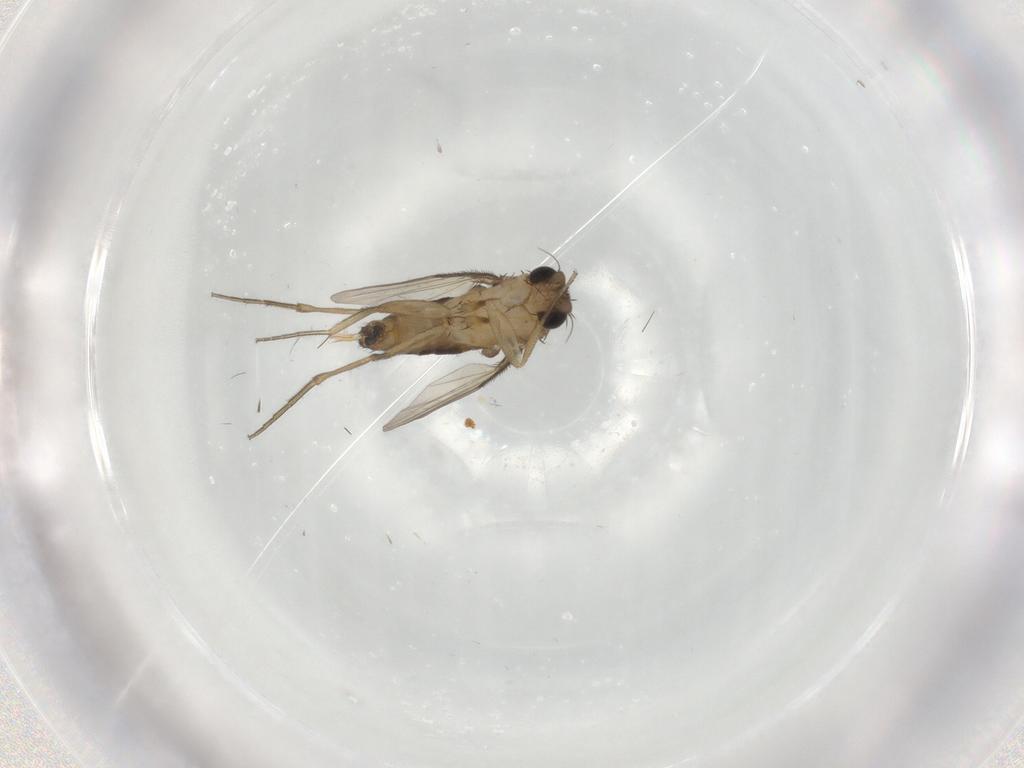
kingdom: Animalia
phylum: Arthropoda
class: Insecta
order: Diptera
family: Phoridae
